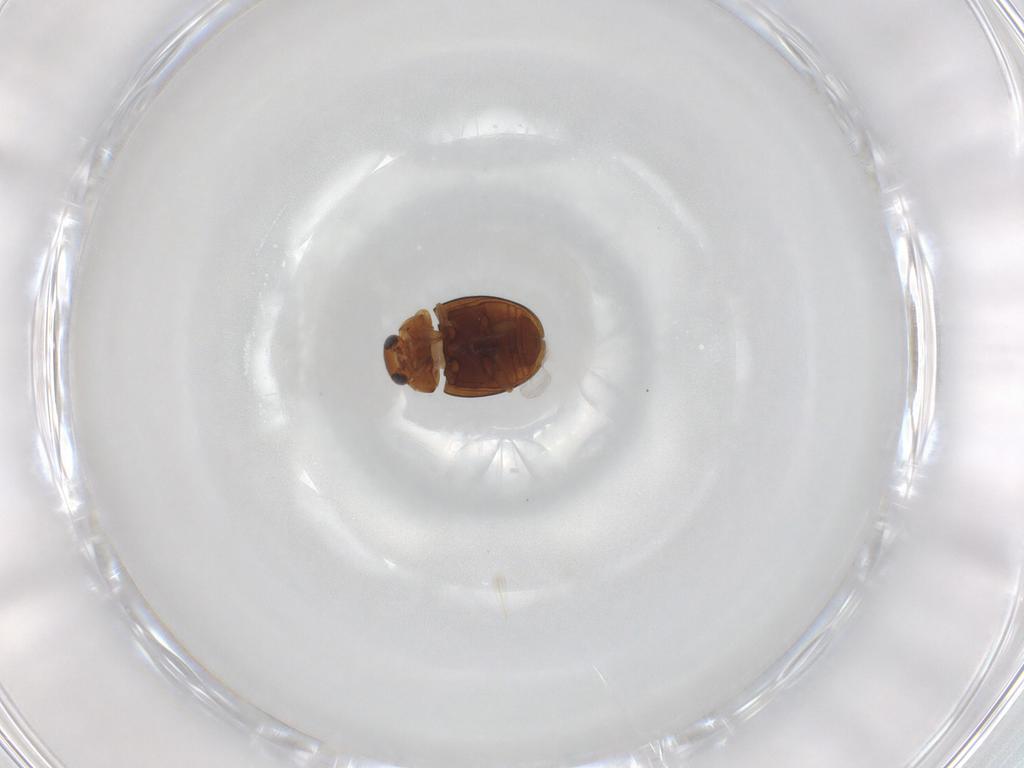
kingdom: Animalia
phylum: Arthropoda
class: Insecta
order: Coleoptera
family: Coccinellidae
